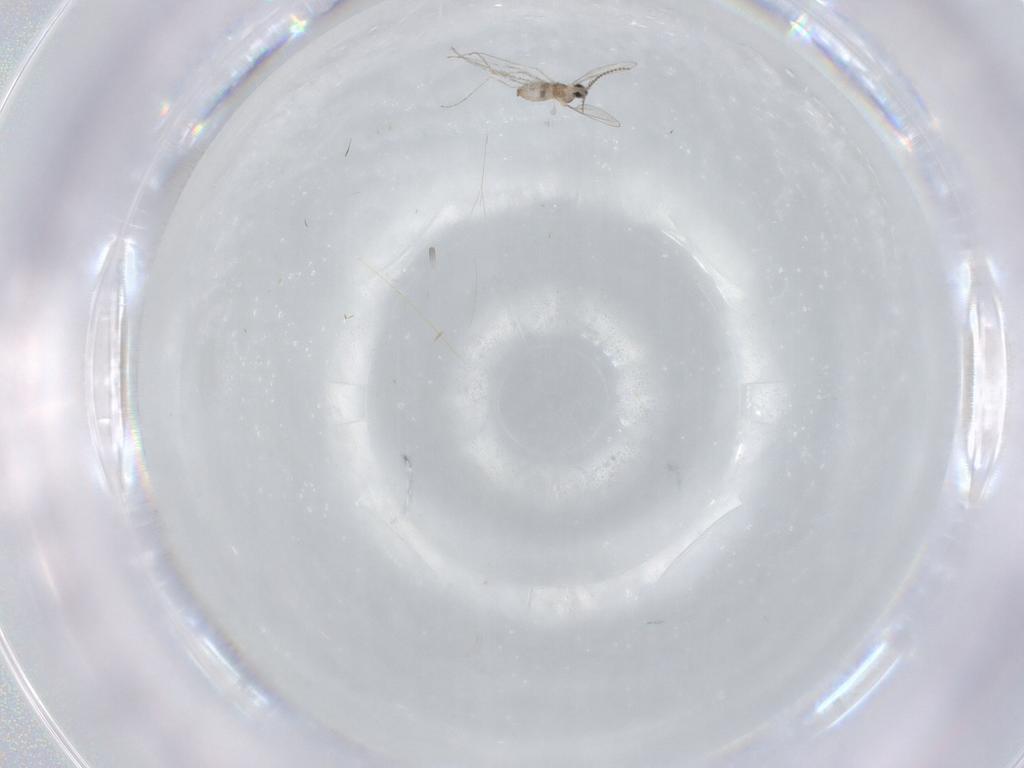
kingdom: Animalia
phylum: Arthropoda
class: Insecta
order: Diptera
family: Cecidomyiidae
